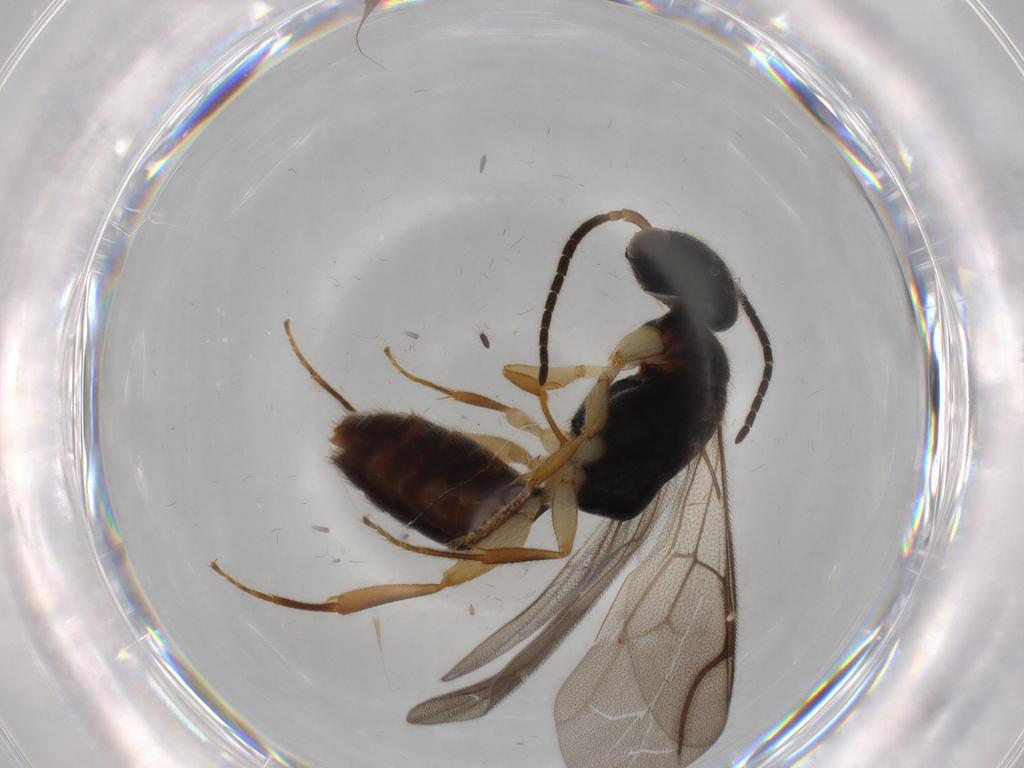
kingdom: Animalia
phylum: Arthropoda
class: Insecta
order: Hymenoptera
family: Bethylidae
